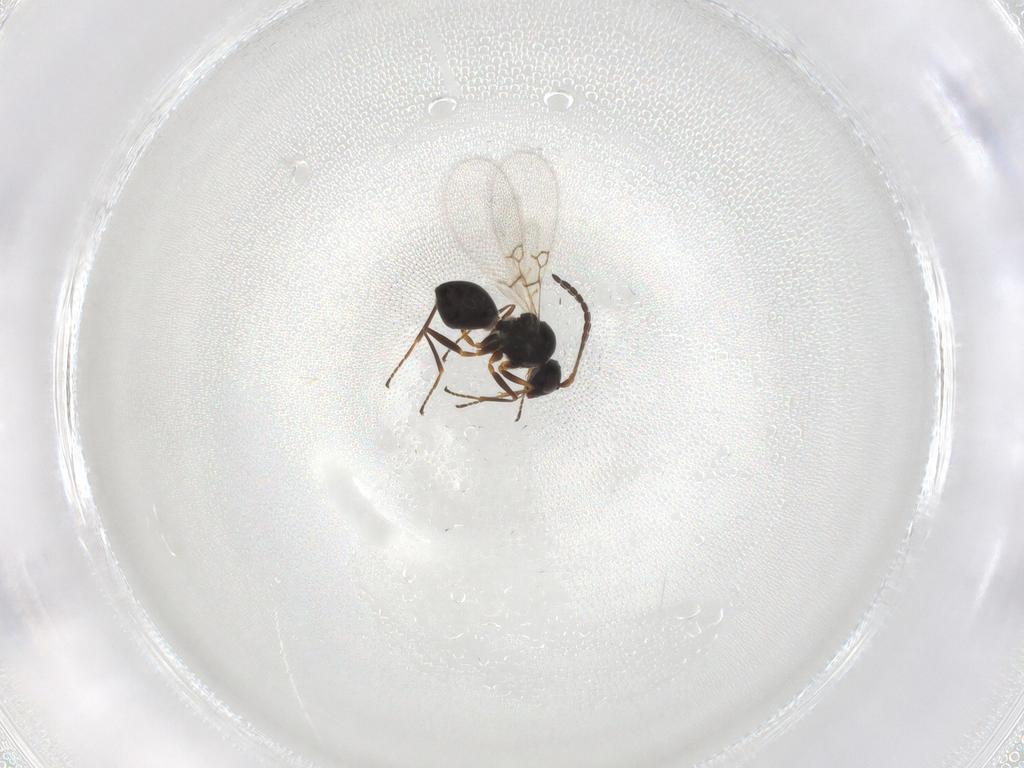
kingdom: Animalia
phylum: Arthropoda
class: Insecta
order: Hymenoptera
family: Figitidae
